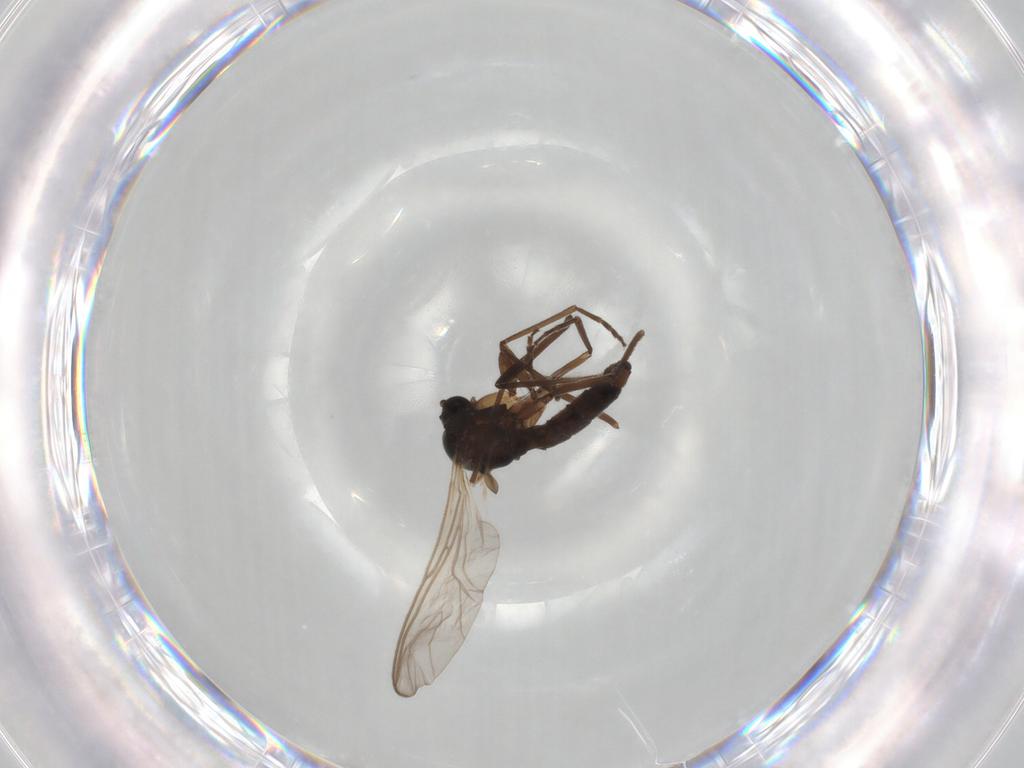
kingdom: Animalia
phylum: Arthropoda
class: Insecta
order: Diptera
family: Chironomidae
